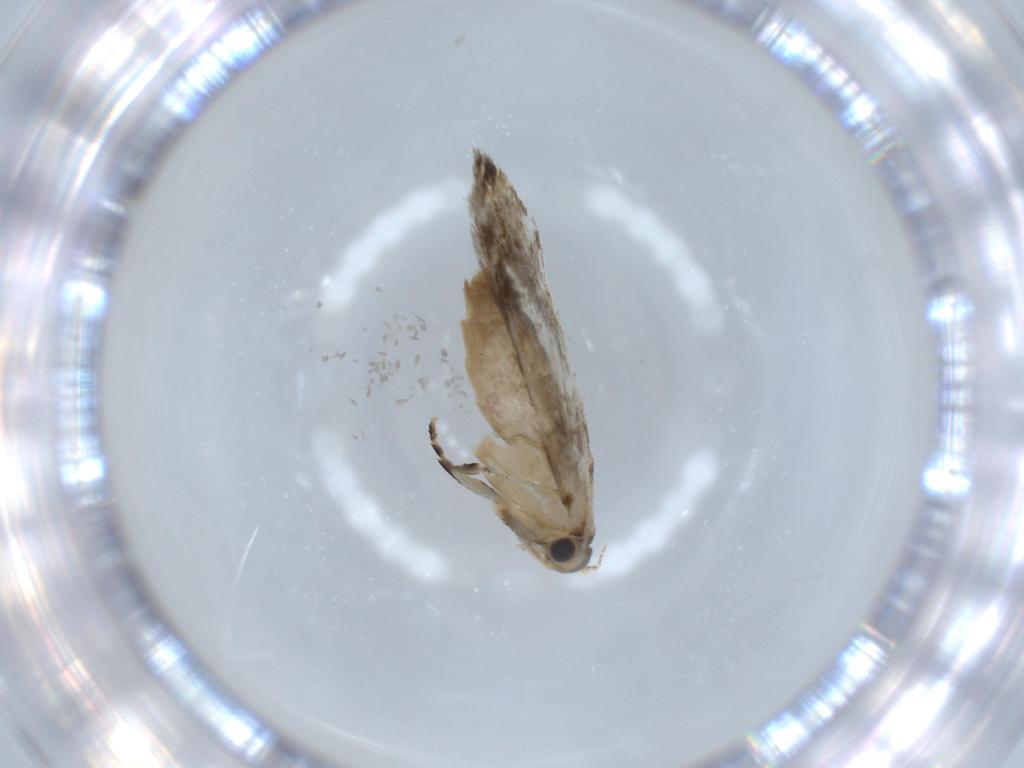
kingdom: Animalia
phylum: Arthropoda
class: Insecta
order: Lepidoptera
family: Tineidae
